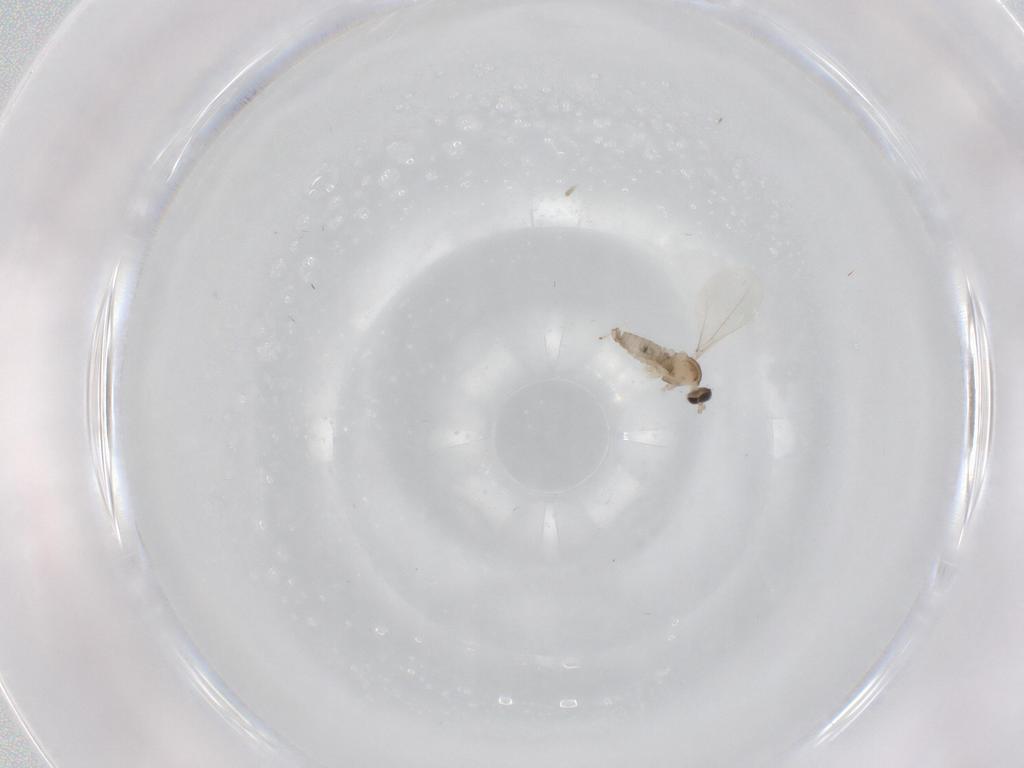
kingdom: Animalia
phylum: Arthropoda
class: Insecta
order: Diptera
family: Cecidomyiidae
